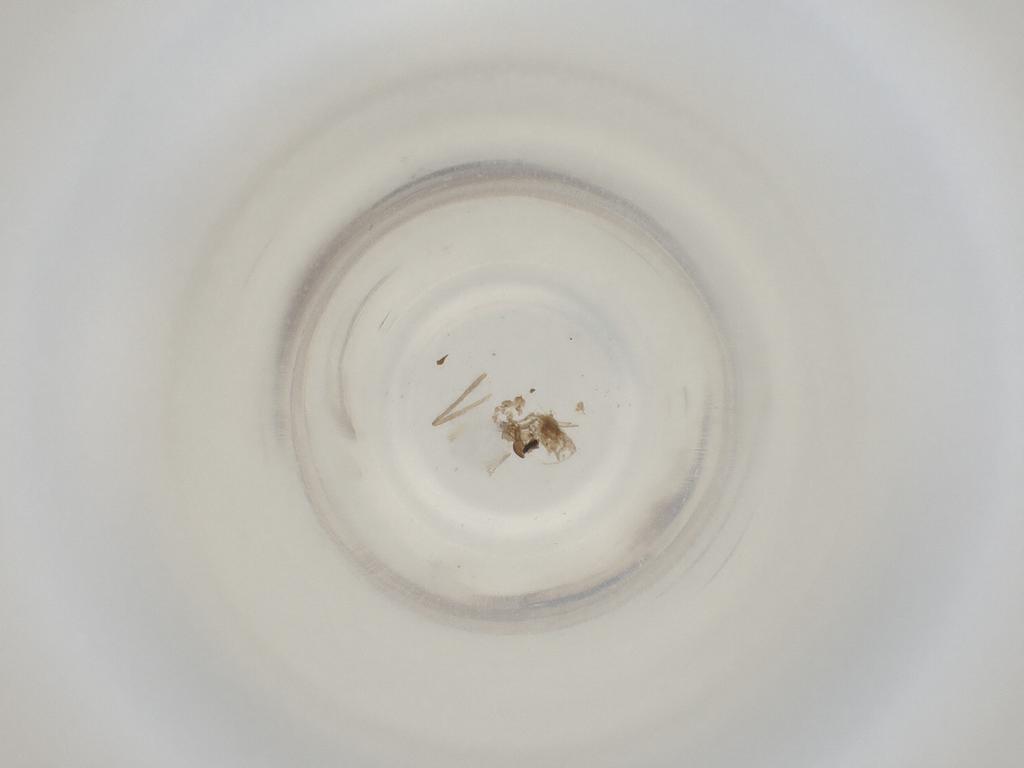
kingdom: Animalia
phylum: Arthropoda
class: Insecta
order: Diptera
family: Cecidomyiidae
